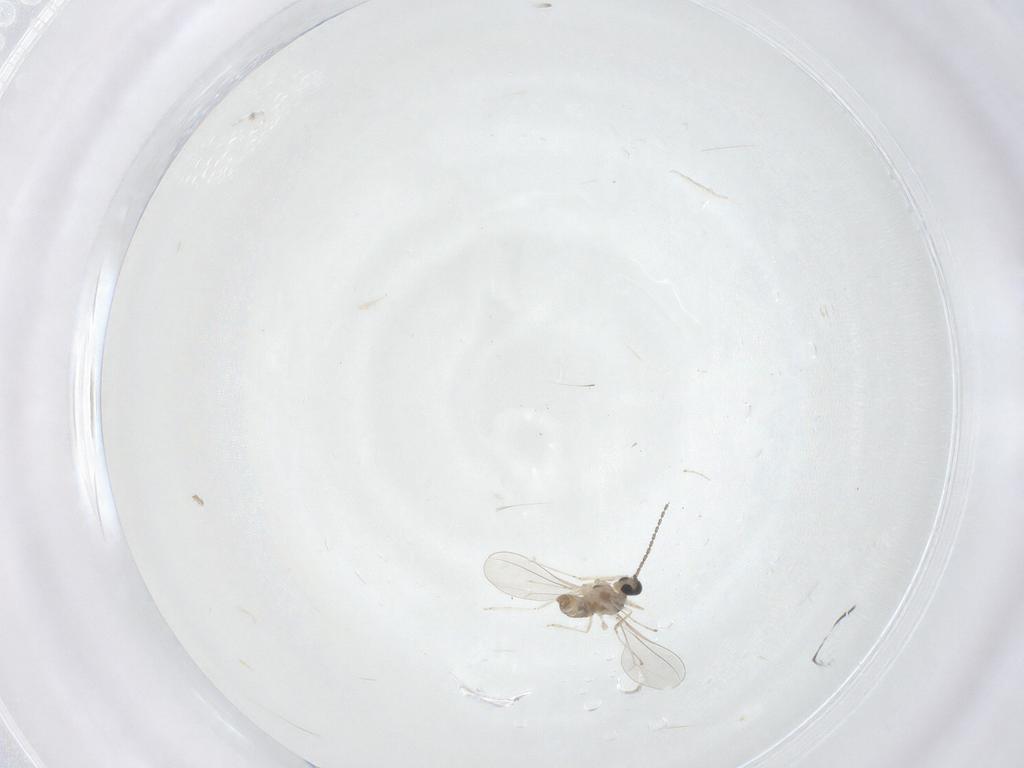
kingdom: Animalia
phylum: Arthropoda
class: Insecta
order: Diptera
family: Cecidomyiidae
